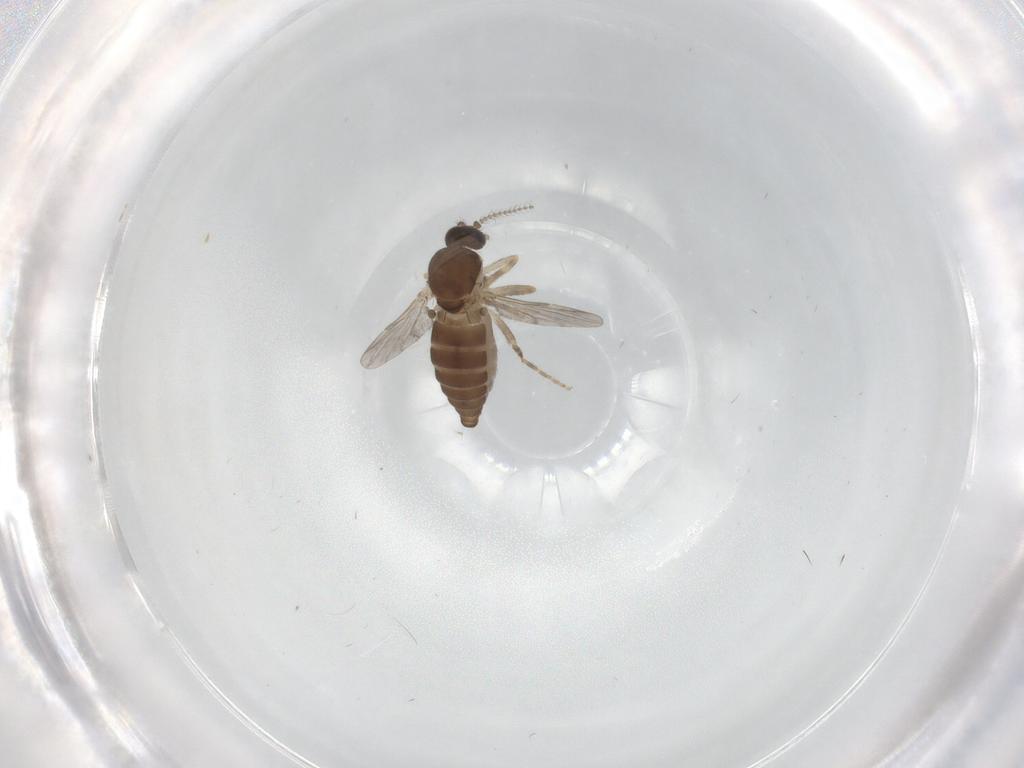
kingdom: Animalia
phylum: Arthropoda
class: Insecta
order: Diptera
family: Ceratopogonidae
